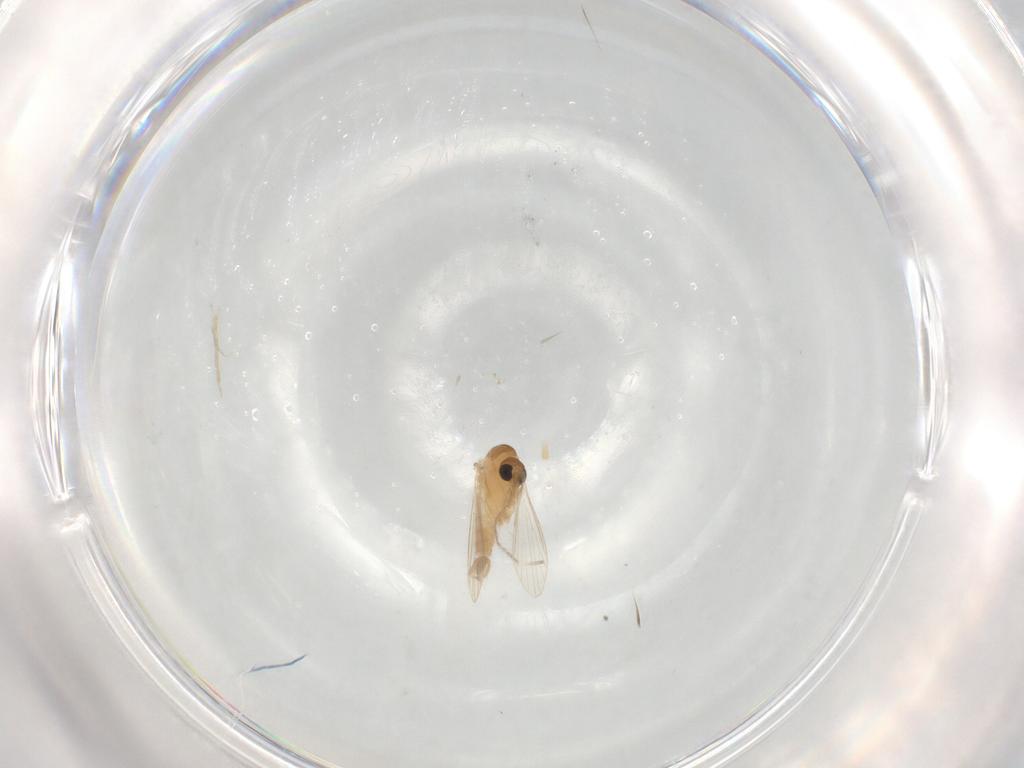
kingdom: Animalia
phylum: Arthropoda
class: Insecta
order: Diptera
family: Psychodidae
